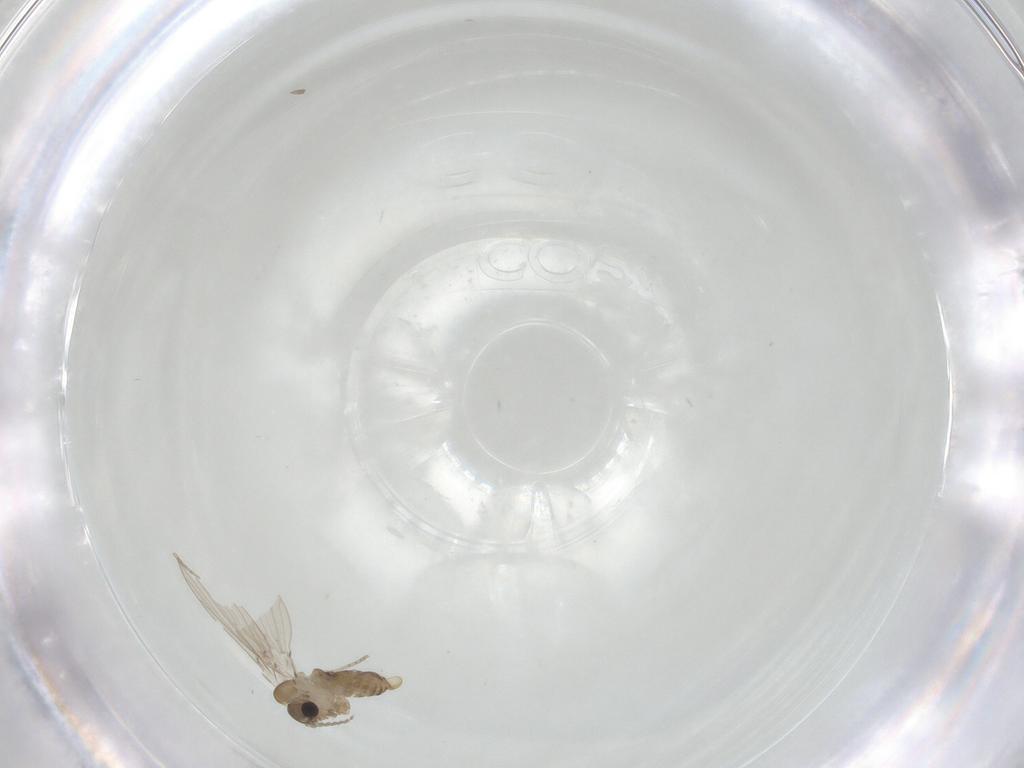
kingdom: Animalia
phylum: Arthropoda
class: Insecta
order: Diptera
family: Psychodidae
